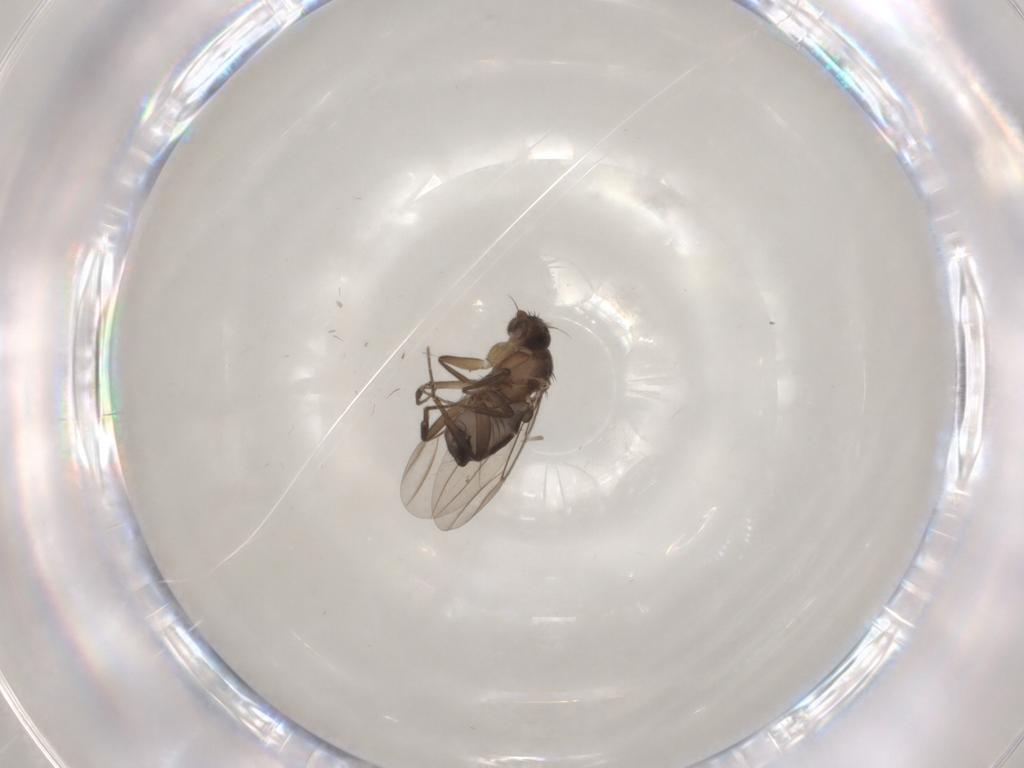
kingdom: Animalia
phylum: Arthropoda
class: Insecta
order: Diptera
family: Phoridae
